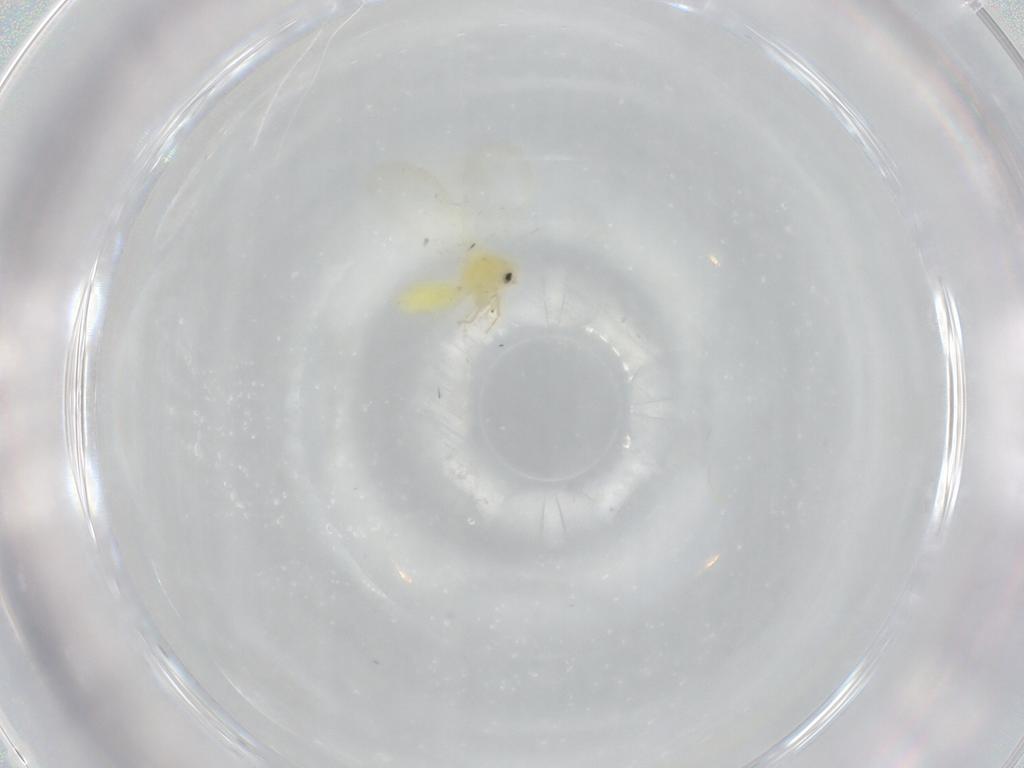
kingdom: Animalia
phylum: Arthropoda
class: Insecta
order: Hemiptera
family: Aleyrodidae
